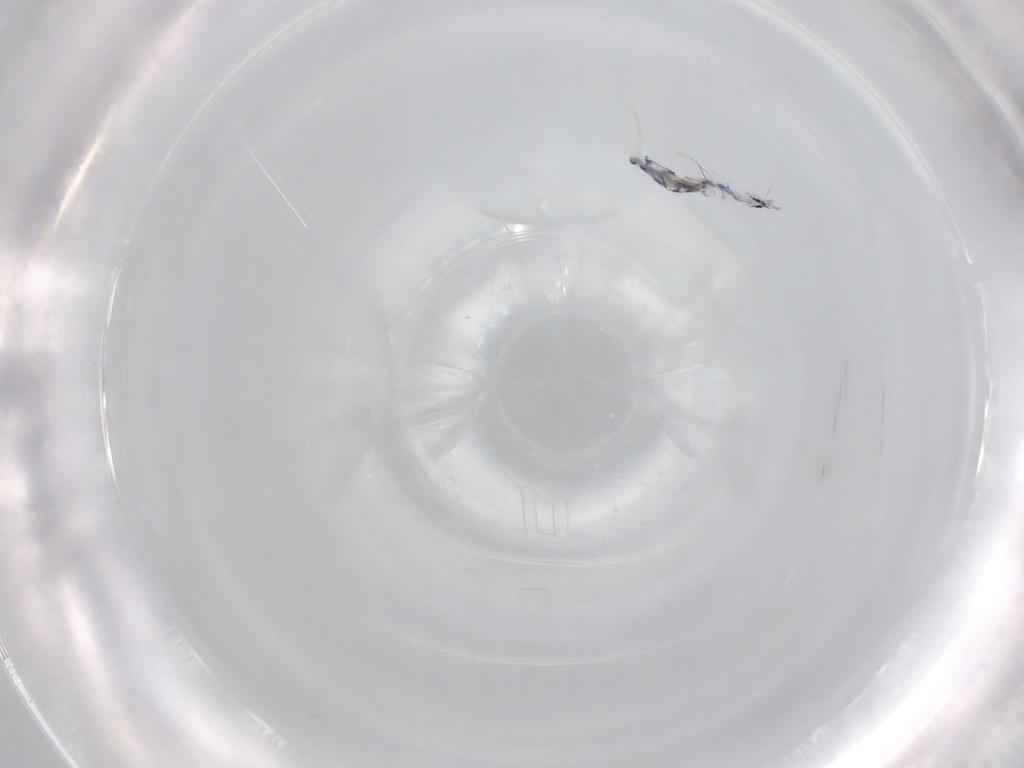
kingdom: Animalia
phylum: Arthropoda
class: Collembola
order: Entomobryomorpha
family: Entomobryidae
